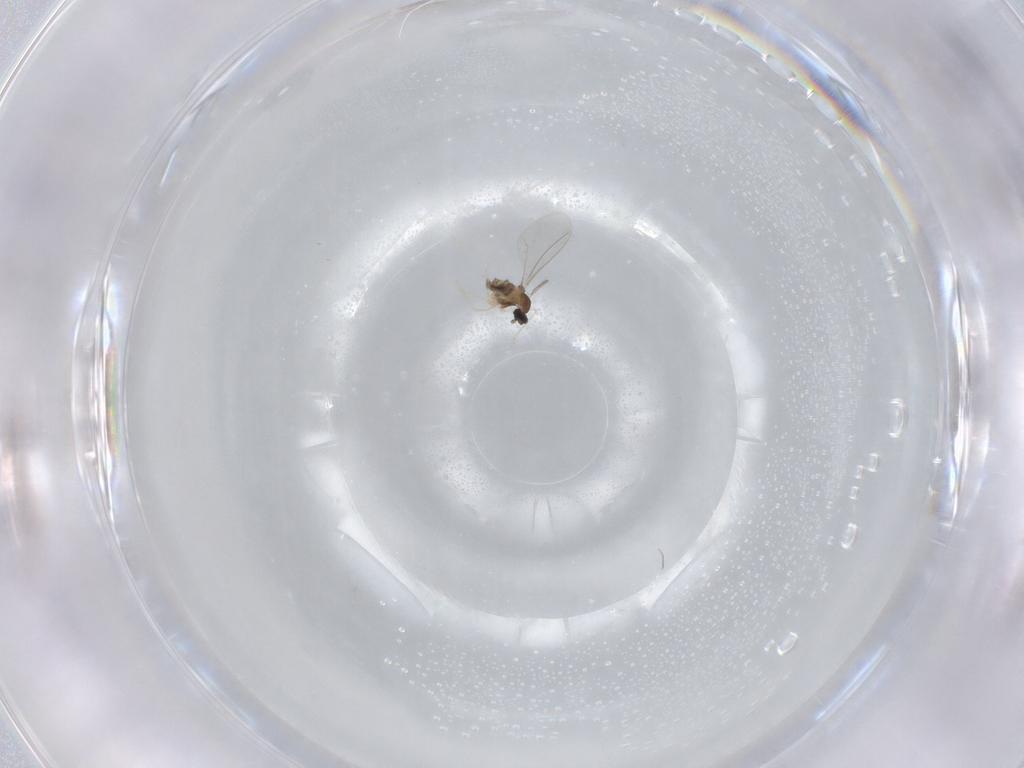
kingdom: Animalia
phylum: Arthropoda
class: Insecta
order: Diptera
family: Cecidomyiidae
